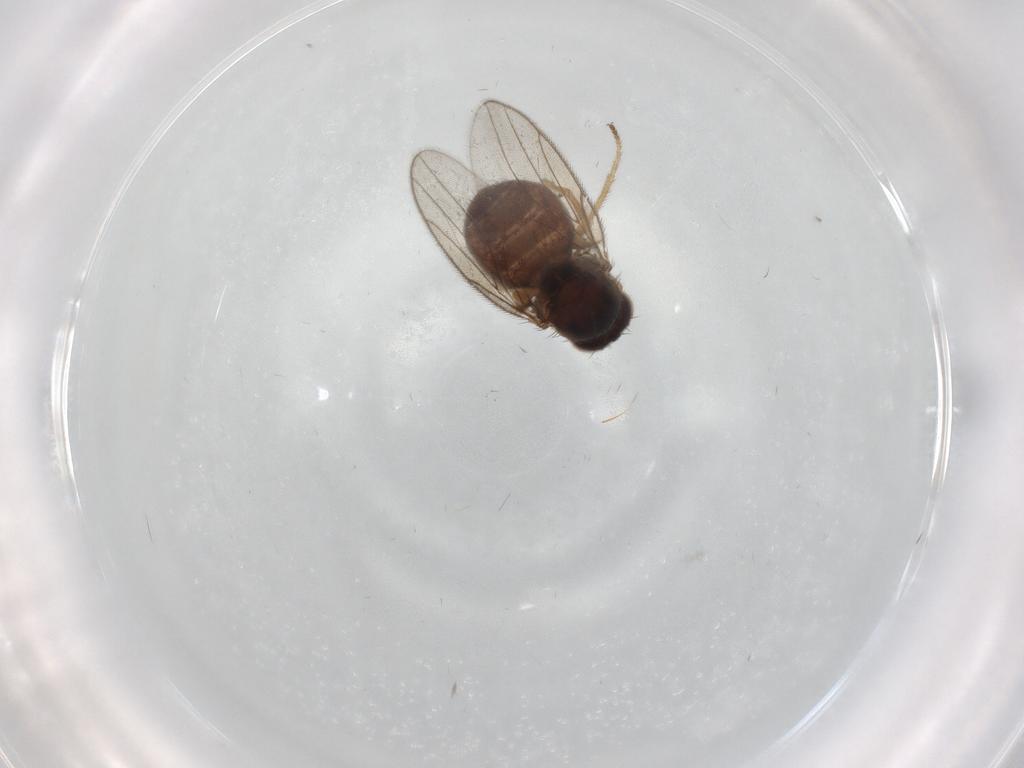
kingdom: Animalia
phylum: Arthropoda
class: Insecta
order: Diptera
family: Chloropidae
